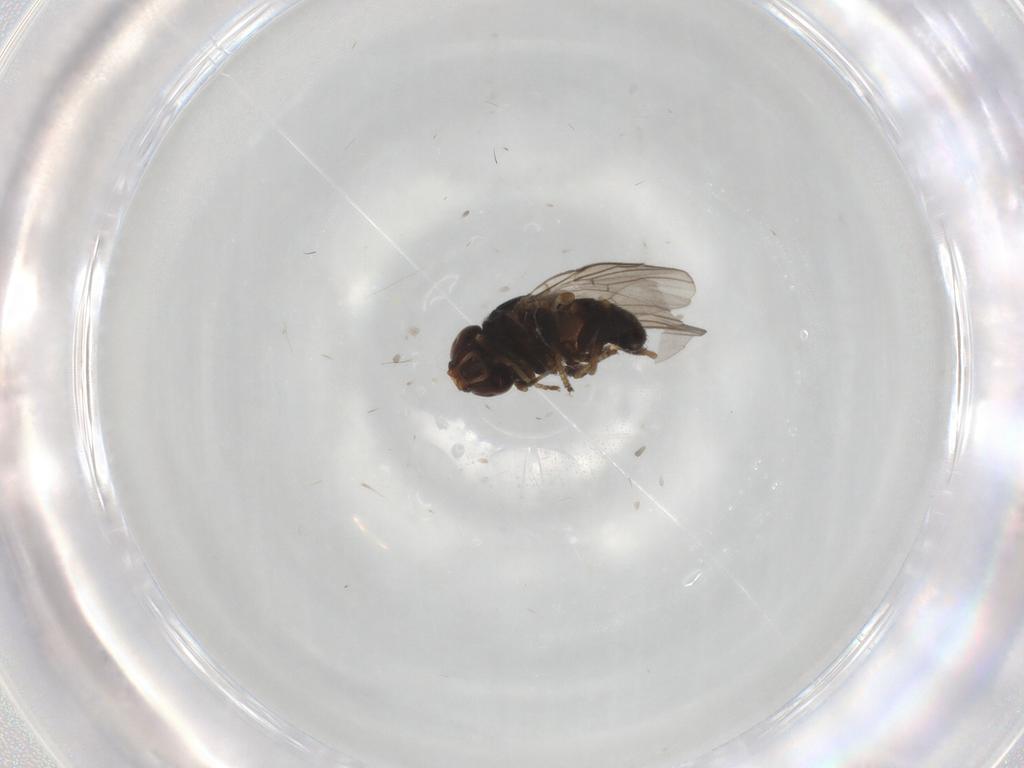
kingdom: Animalia
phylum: Arthropoda
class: Insecta
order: Diptera
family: Chloropidae
